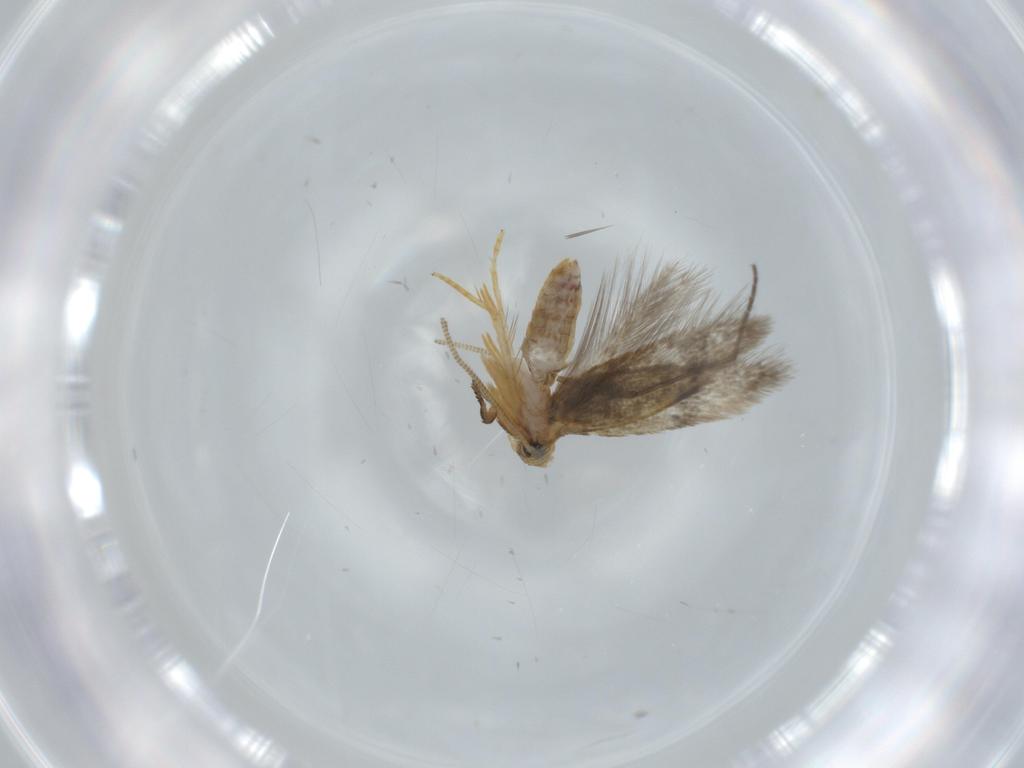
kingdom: Animalia
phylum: Arthropoda
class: Insecta
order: Lepidoptera
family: Nepticulidae
